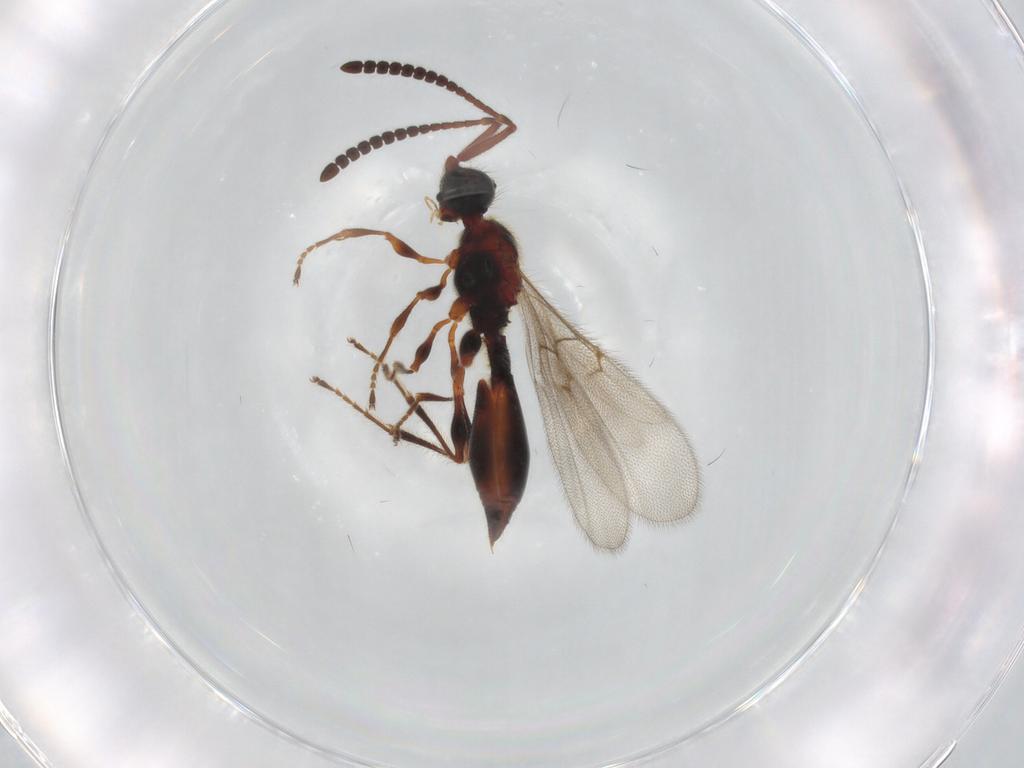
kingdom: Animalia
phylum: Arthropoda
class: Insecta
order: Hymenoptera
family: Diapriidae
